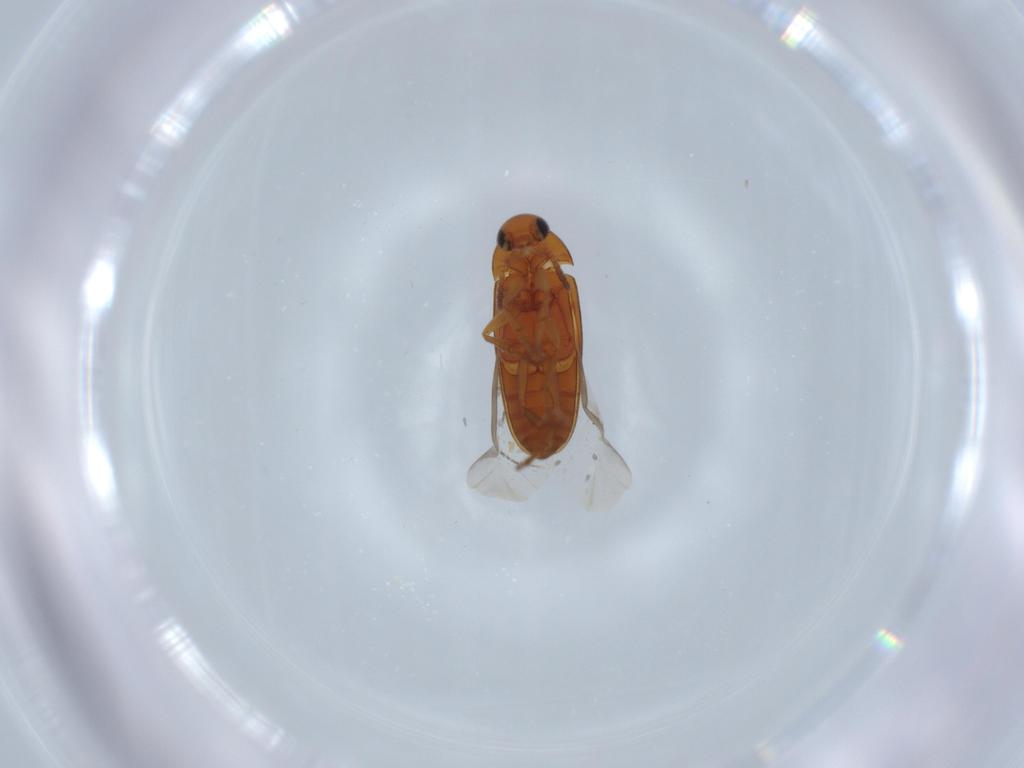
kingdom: Animalia
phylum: Arthropoda
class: Insecta
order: Coleoptera
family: Scraptiidae
